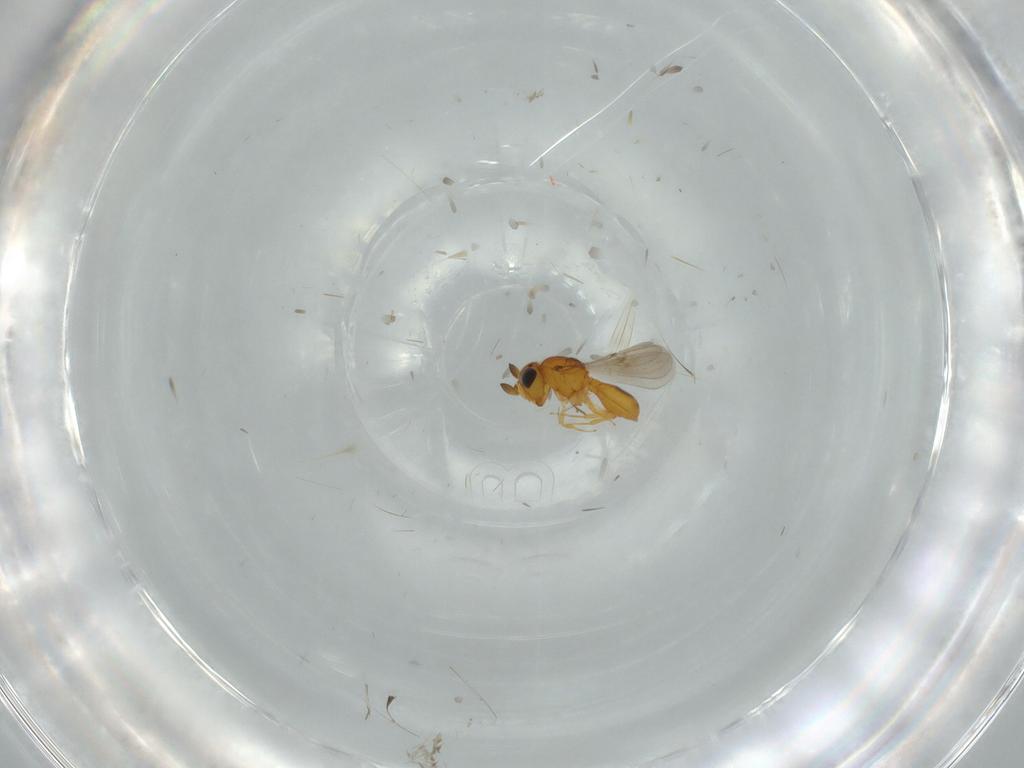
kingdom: Animalia
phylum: Arthropoda
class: Insecta
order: Hymenoptera
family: Scelionidae
